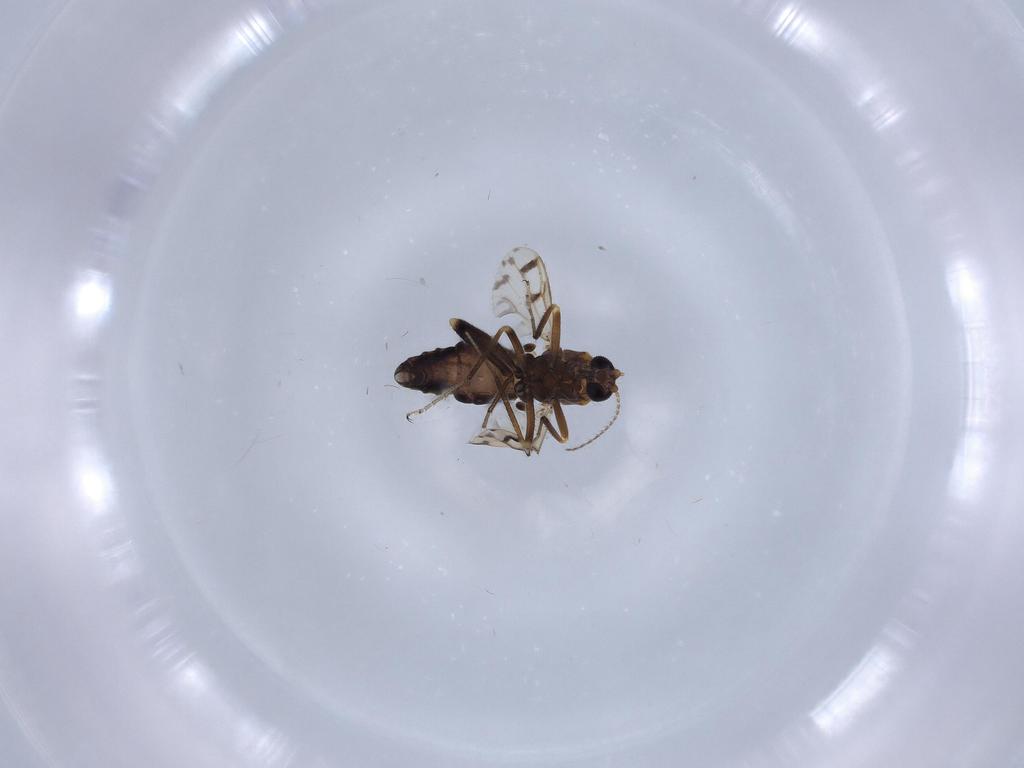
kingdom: Animalia
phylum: Arthropoda
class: Insecta
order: Diptera
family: Ceratopogonidae
